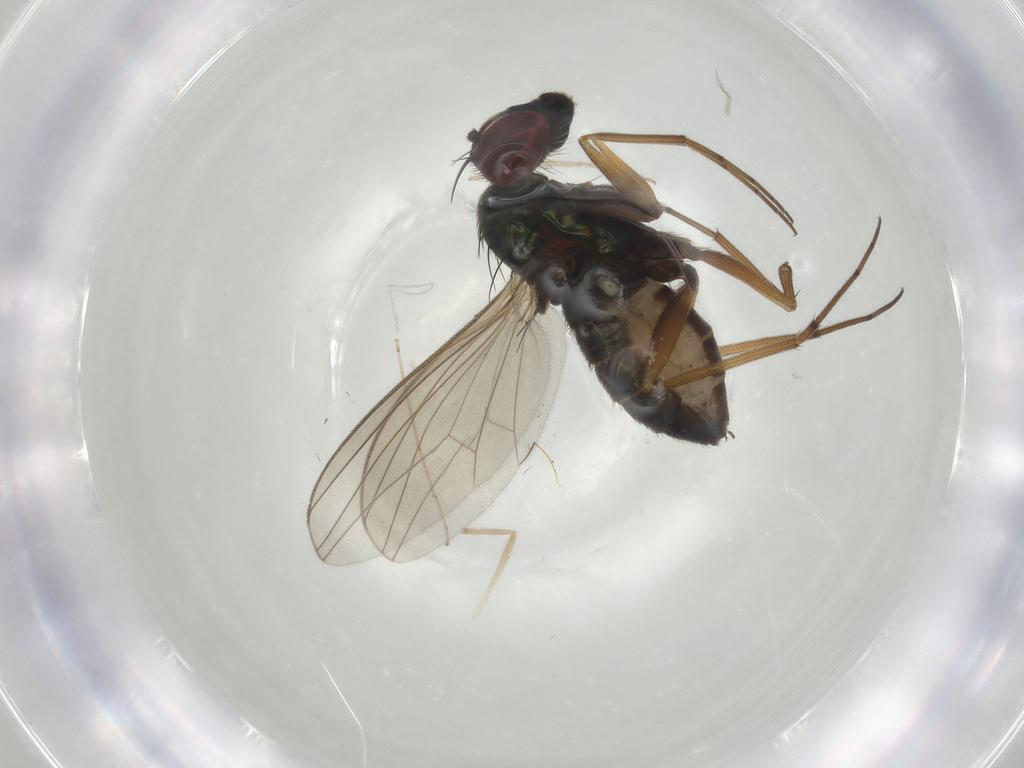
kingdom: Animalia
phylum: Arthropoda
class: Insecta
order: Diptera
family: Dolichopodidae
